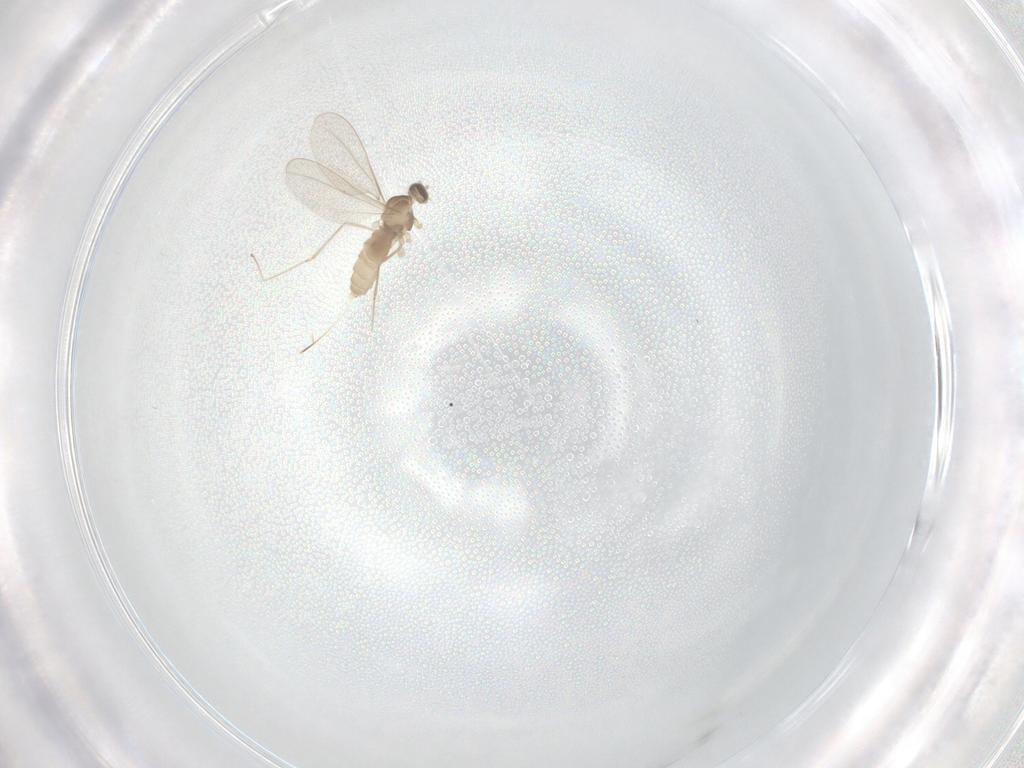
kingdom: Animalia
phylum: Arthropoda
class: Insecta
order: Diptera
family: Cecidomyiidae
